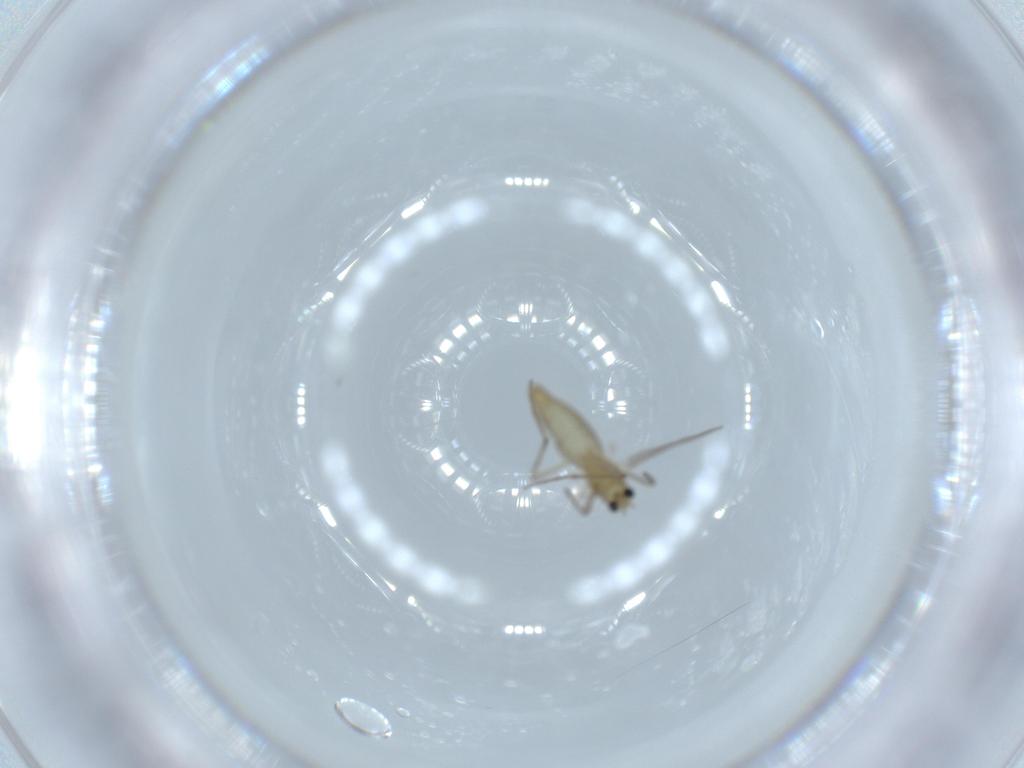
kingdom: Animalia
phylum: Arthropoda
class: Insecta
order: Diptera
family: Chironomidae
